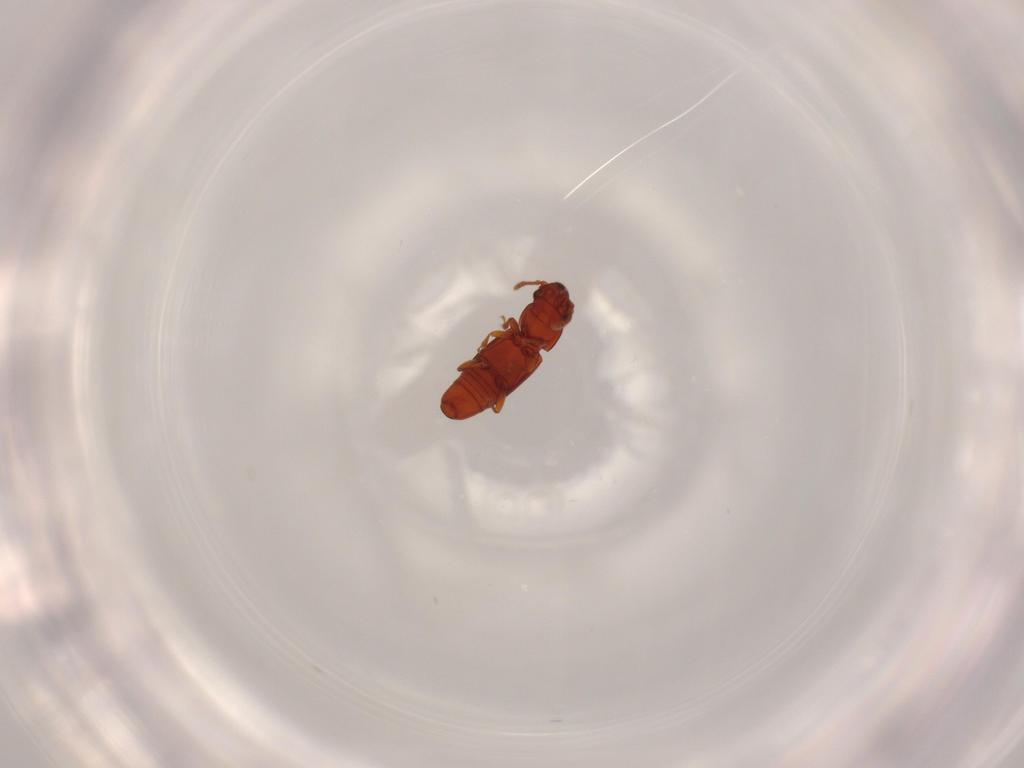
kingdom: Animalia
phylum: Arthropoda
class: Insecta
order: Coleoptera
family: Smicripidae
